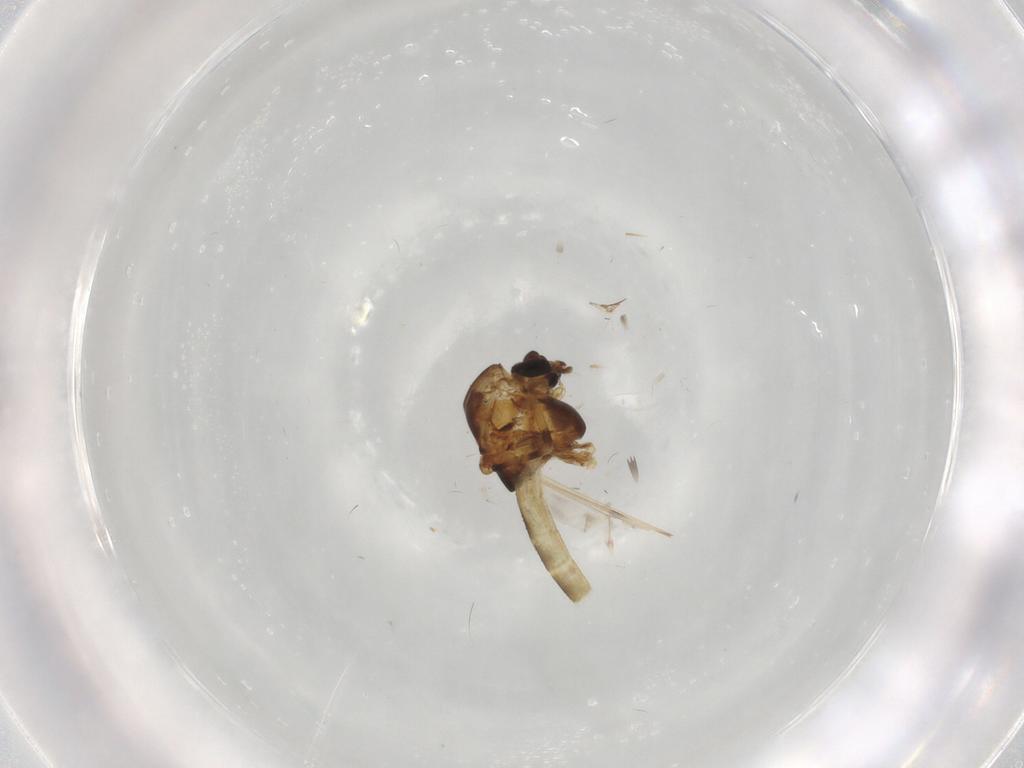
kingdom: Animalia
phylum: Arthropoda
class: Insecta
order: Diptera
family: Chironomidae
